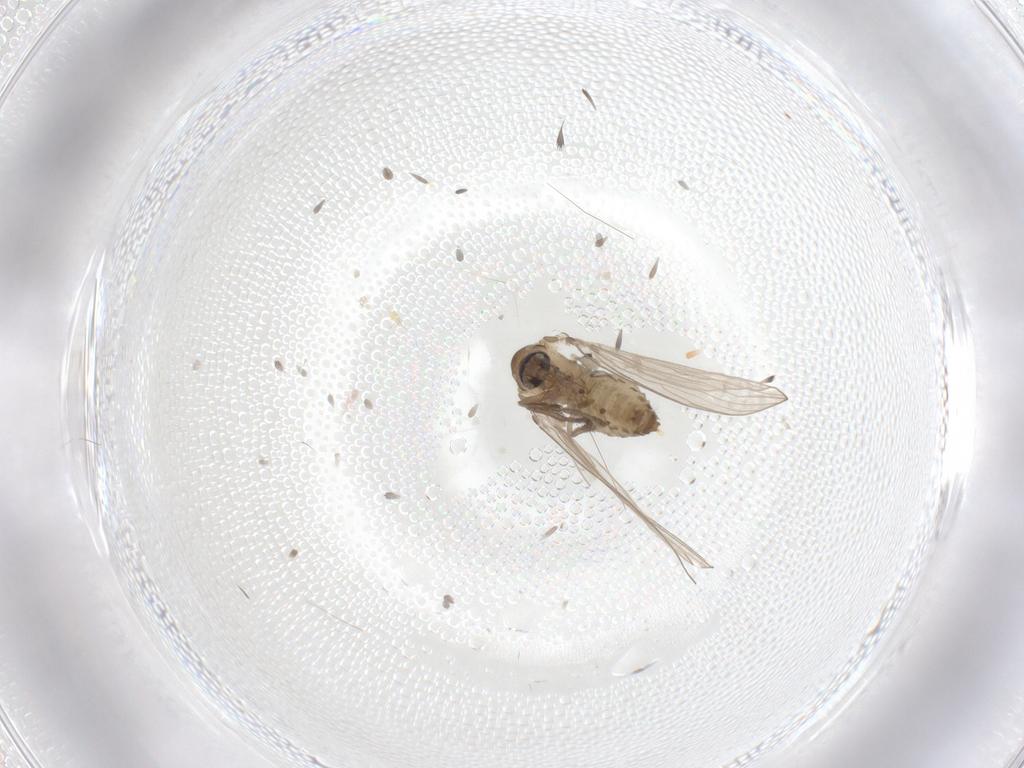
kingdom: Animalia
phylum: Arthropoda
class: Insecta
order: Diptera
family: Psychodidae
